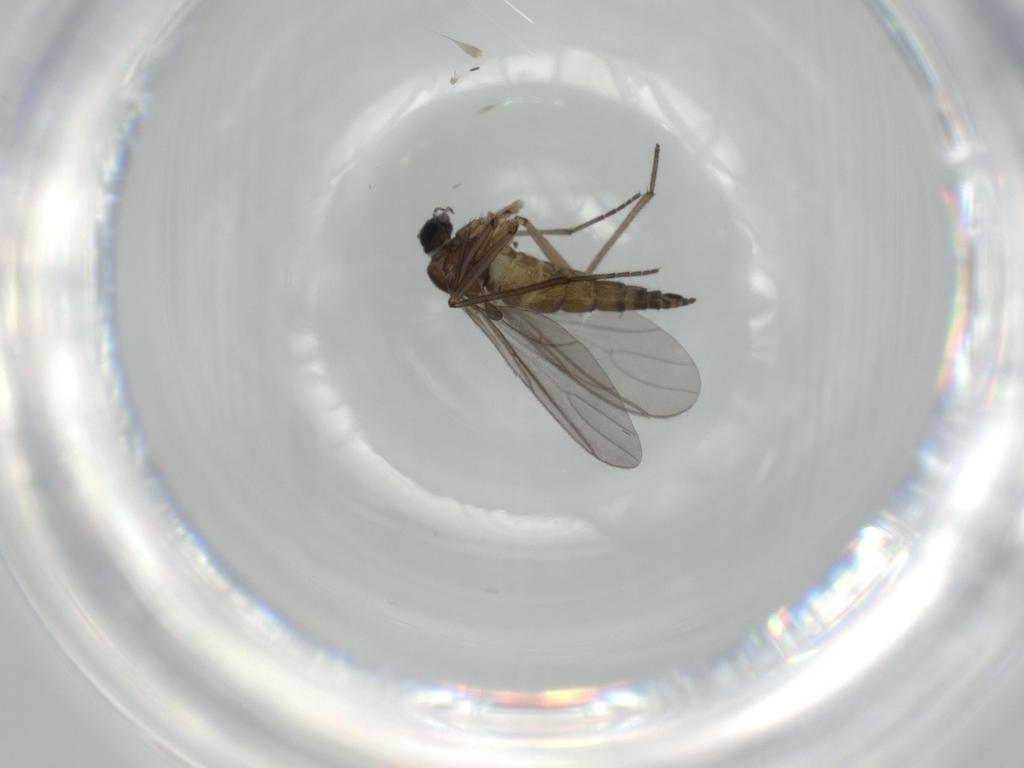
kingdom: Animalia
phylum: Arthropoda
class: Insecta
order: Diptera
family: Sciaridae
